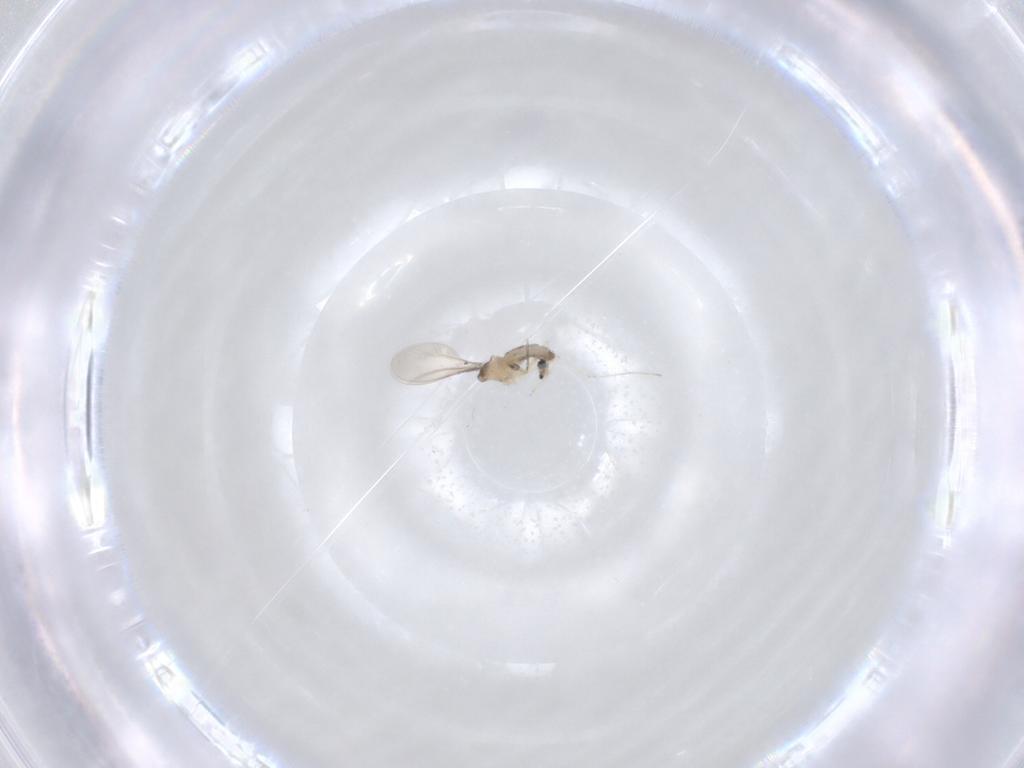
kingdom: Animalia
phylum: Arthropoda
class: Insecta
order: Diptera
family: Cecidomyiidae
